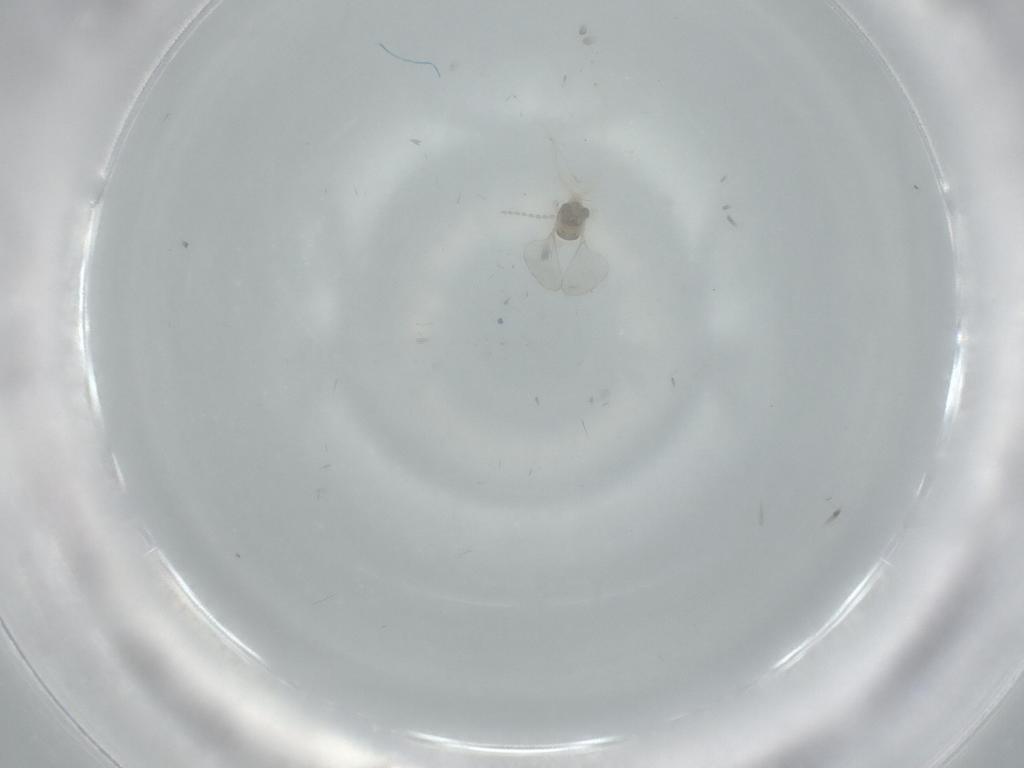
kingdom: Animalia
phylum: Arthropoda
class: Insecta
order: Diptera
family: Cecidomyiidae
